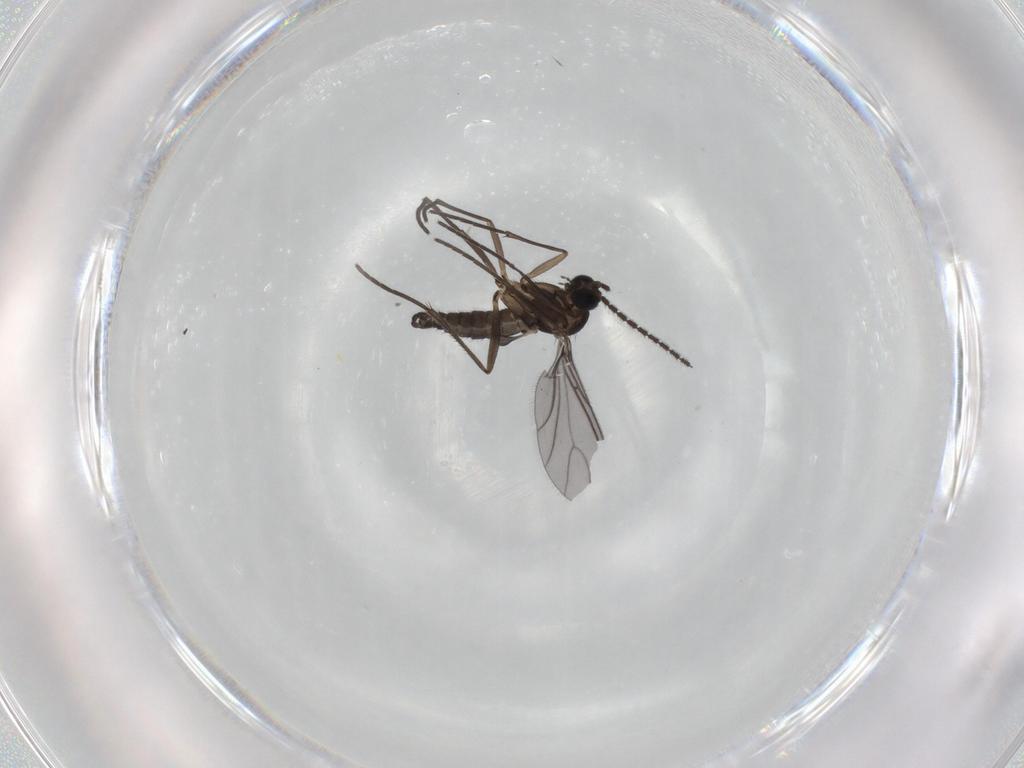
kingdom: Animalia
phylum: Arthropoda
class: Insecta
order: Diptera
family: Sciaridae
